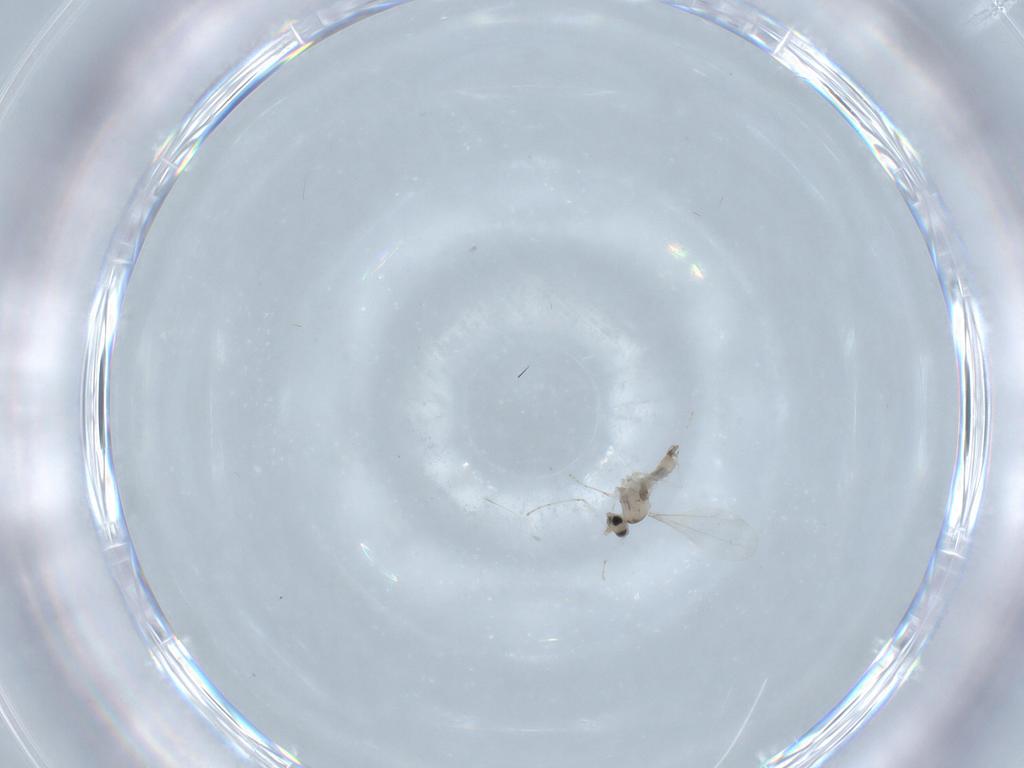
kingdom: Animalia
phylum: Arthropoda
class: Insecta
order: Diptera
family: Cecidomyiidae
